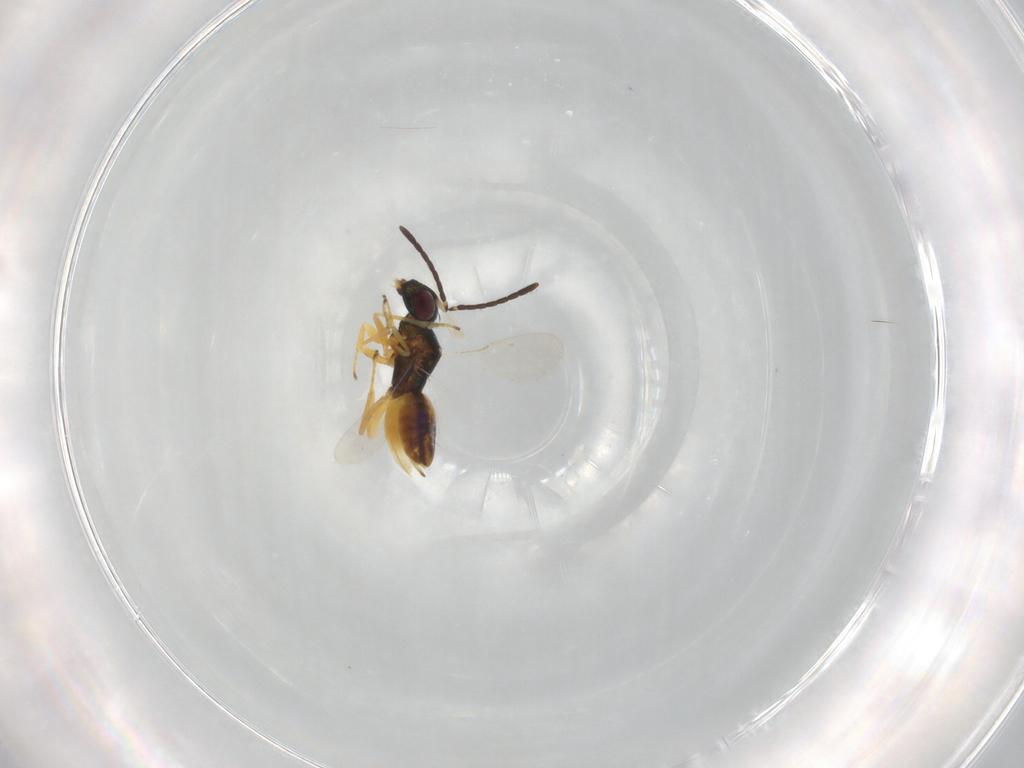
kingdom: Animalia
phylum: Arthropoda
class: Insecta
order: Hymenoptera
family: Encyrtidae
